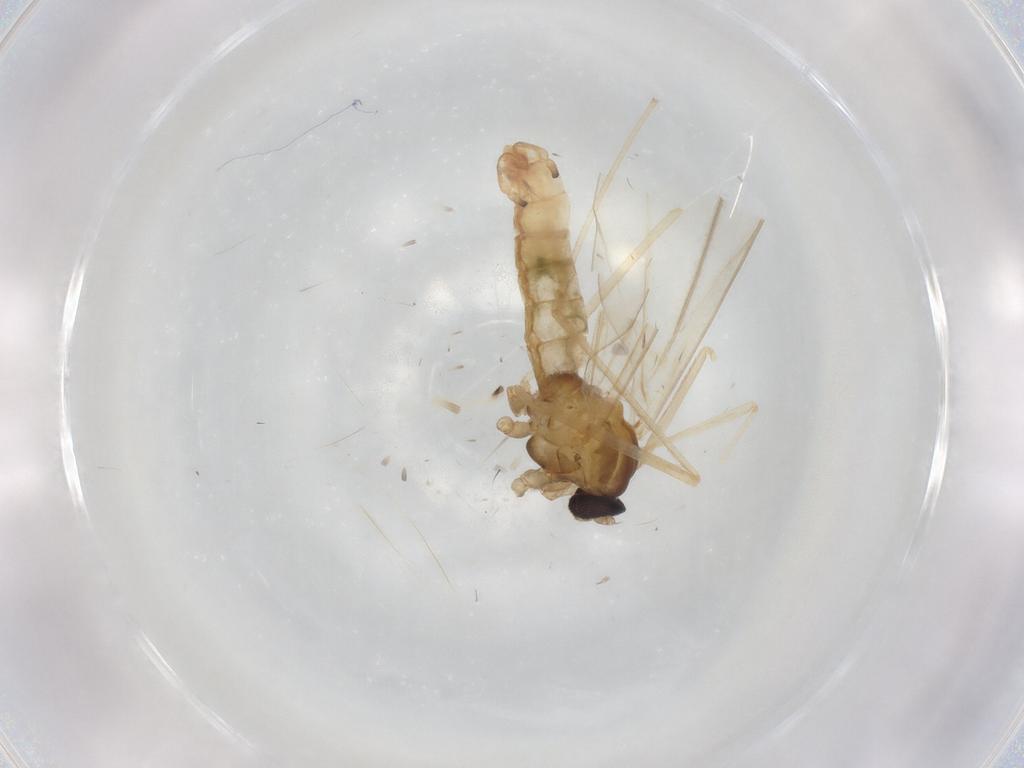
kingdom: Animalia
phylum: Arthropoda
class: Insecta
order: Diptera
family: Cecidomyiidae
